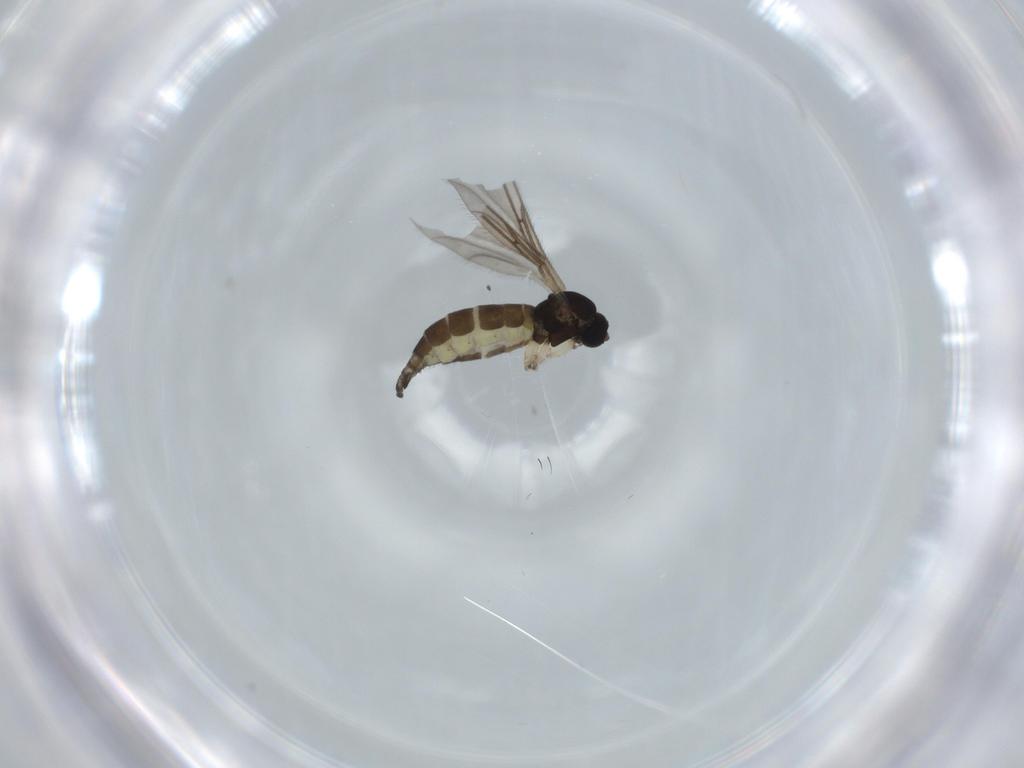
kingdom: Animalia
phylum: Arthropoda
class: Insecta
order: Diptera
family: Sciaridae
